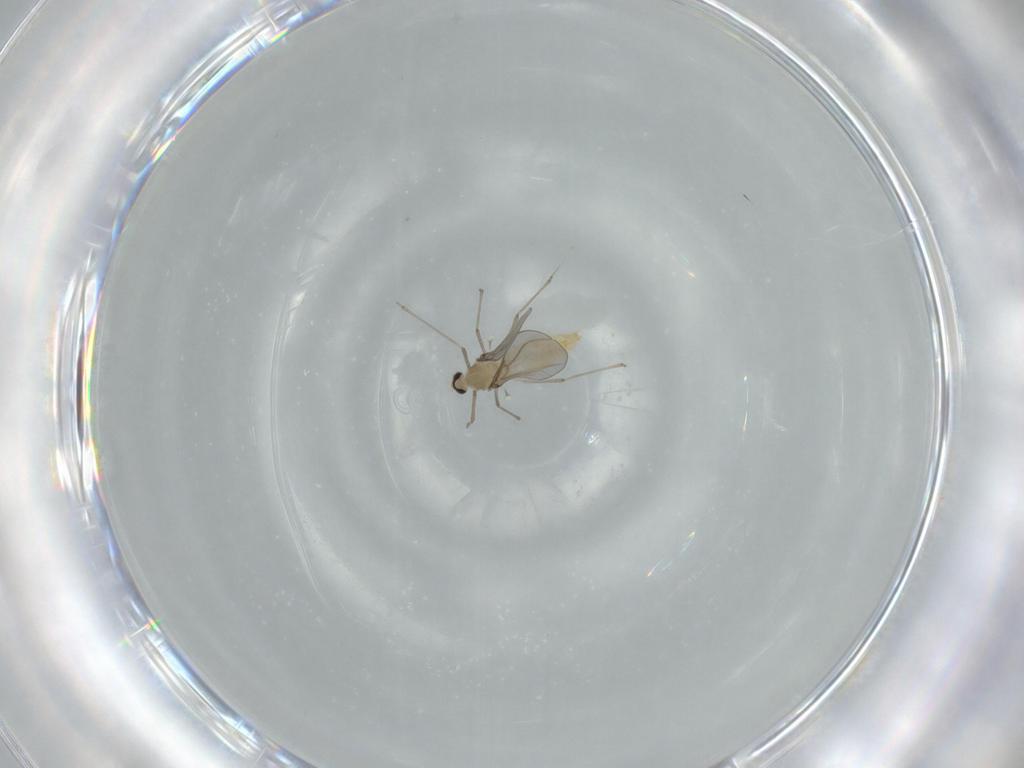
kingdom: Animalia
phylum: Arthropoda
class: Insecta
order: Diptera
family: Cecidomyiidae
